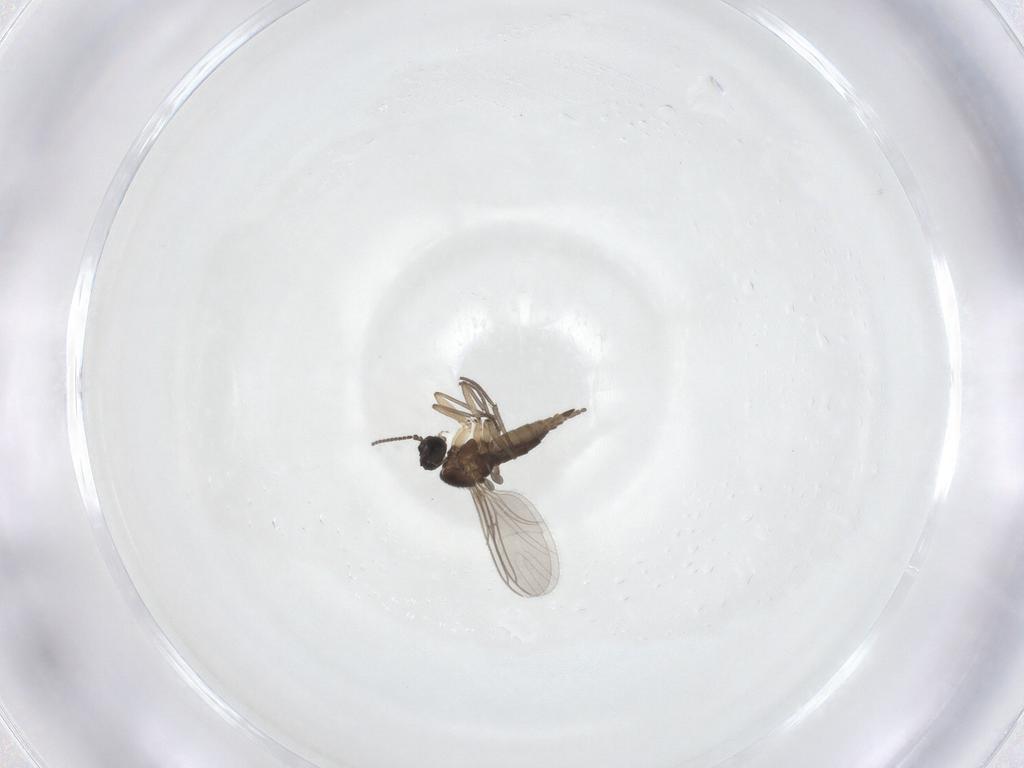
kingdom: Animalia
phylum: Arthropoda
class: Insecta
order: Diptera
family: Sciaridae
